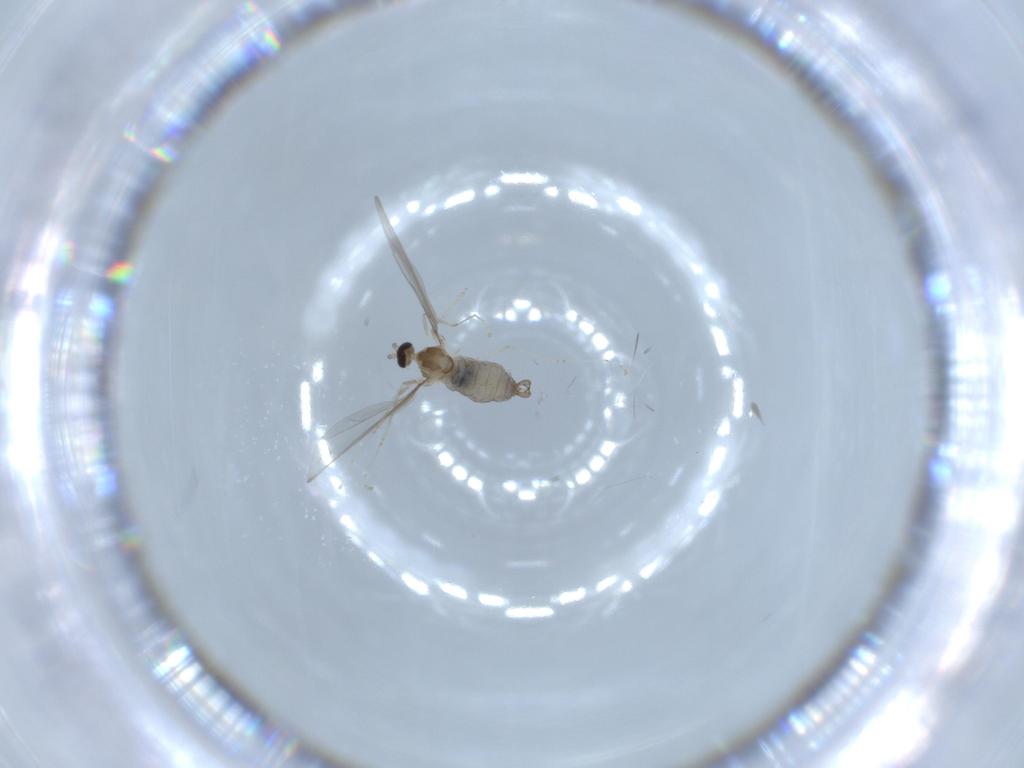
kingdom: Animalia
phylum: Arthropoda
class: Insecta
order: Diptera
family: Cecidomyiidae
